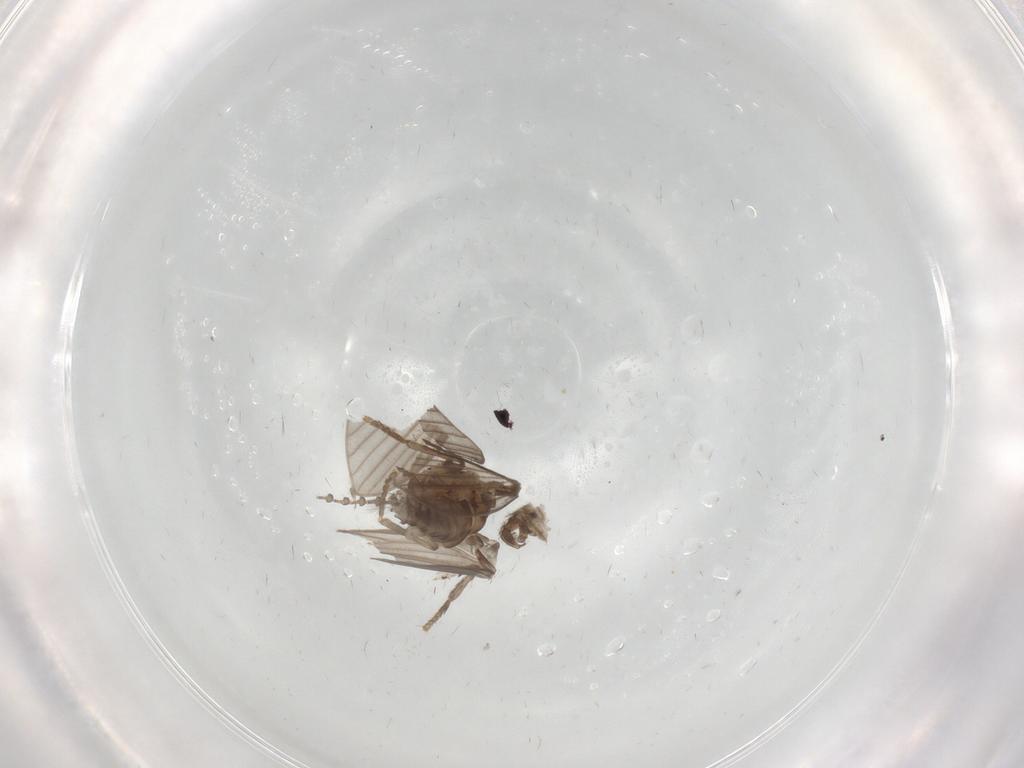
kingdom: Animalia
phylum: Arthropoda
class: Insecta
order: Diptera
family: Psychodidae
